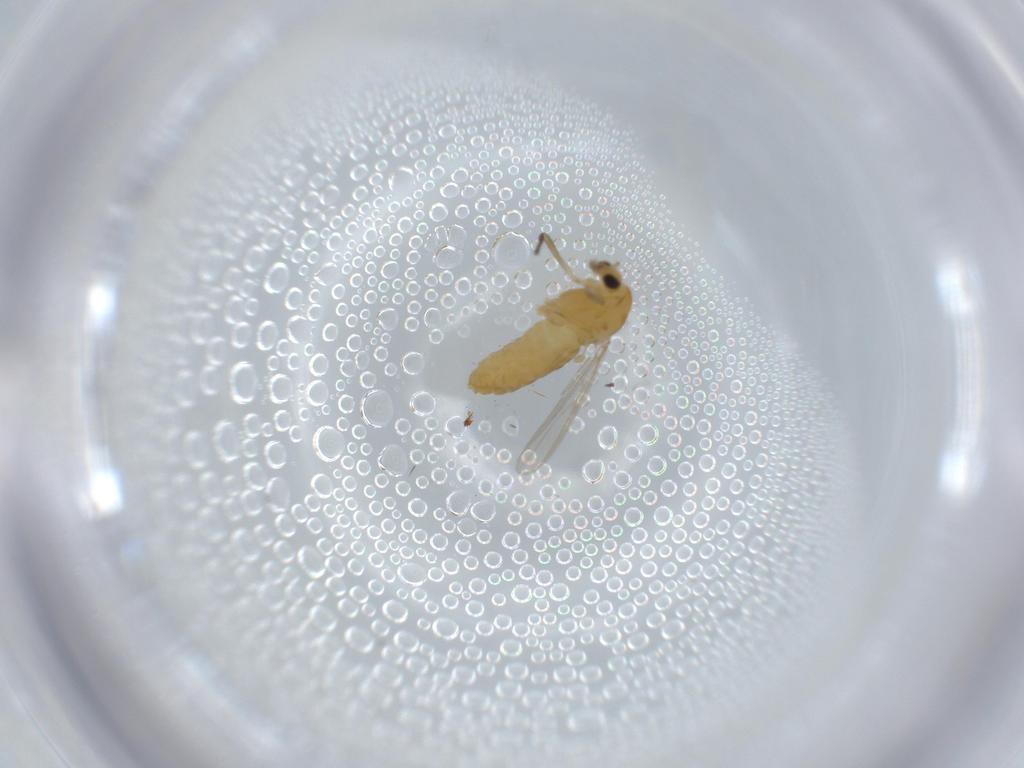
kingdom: Animalia
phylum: Arthropoda
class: Insecta
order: Diptera
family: Chironomidae
